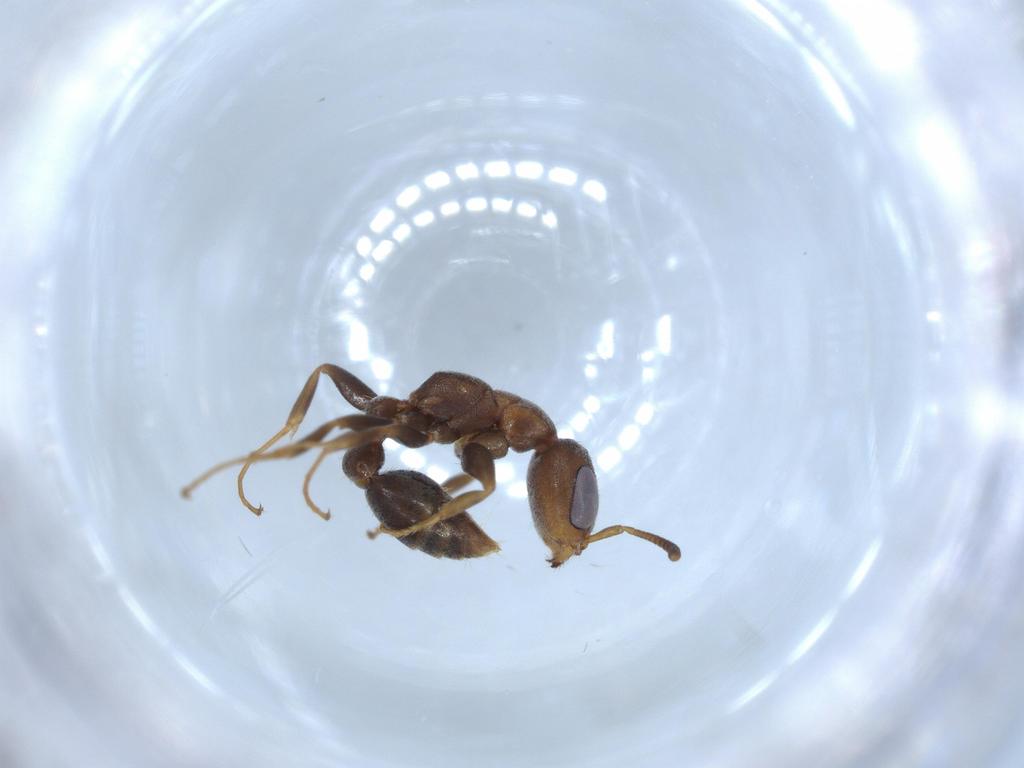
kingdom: Animalia
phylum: Arthropoda
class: Insecta
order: Hymenoptera
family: Formicidae
